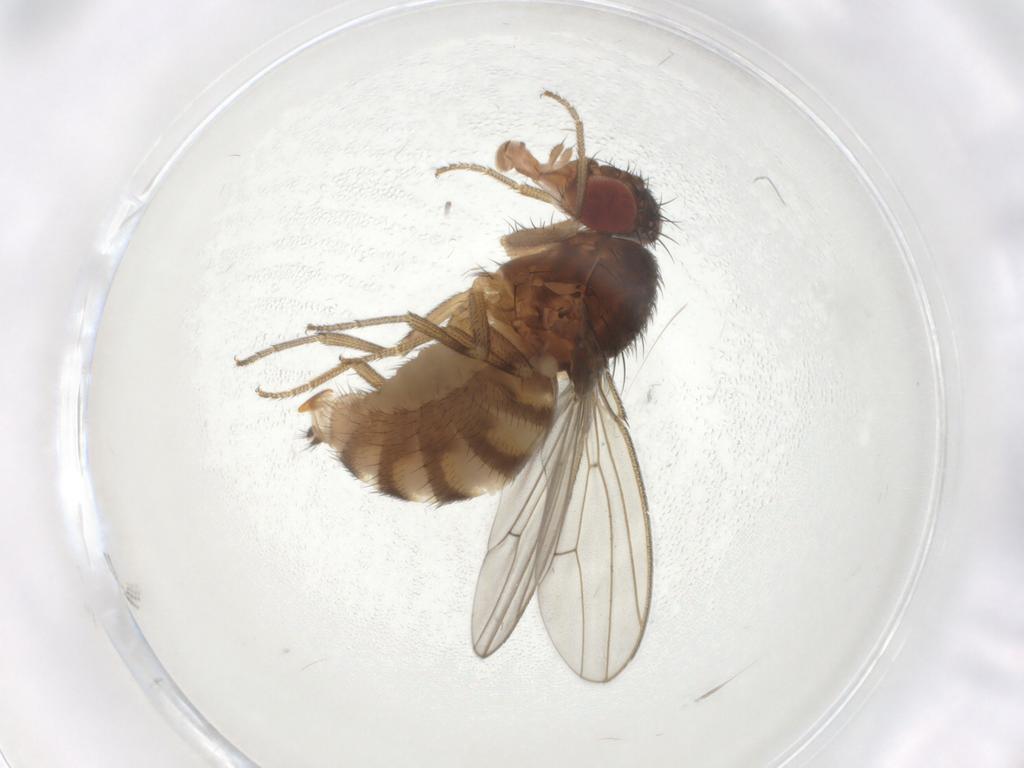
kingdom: Animalia
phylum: Arthropoda
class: Insecta
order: Diptera
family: Drosophilidae
